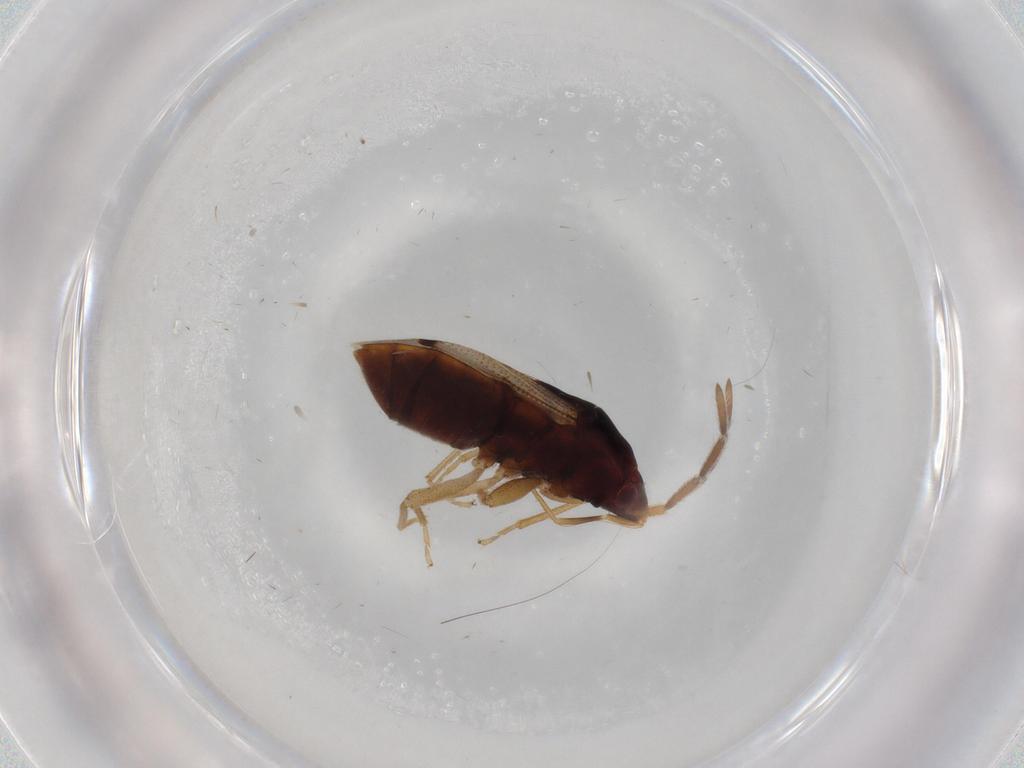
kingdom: Animalia
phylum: Arthropoda
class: Insecta
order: Hemiptera
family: Rhyparochromidae
